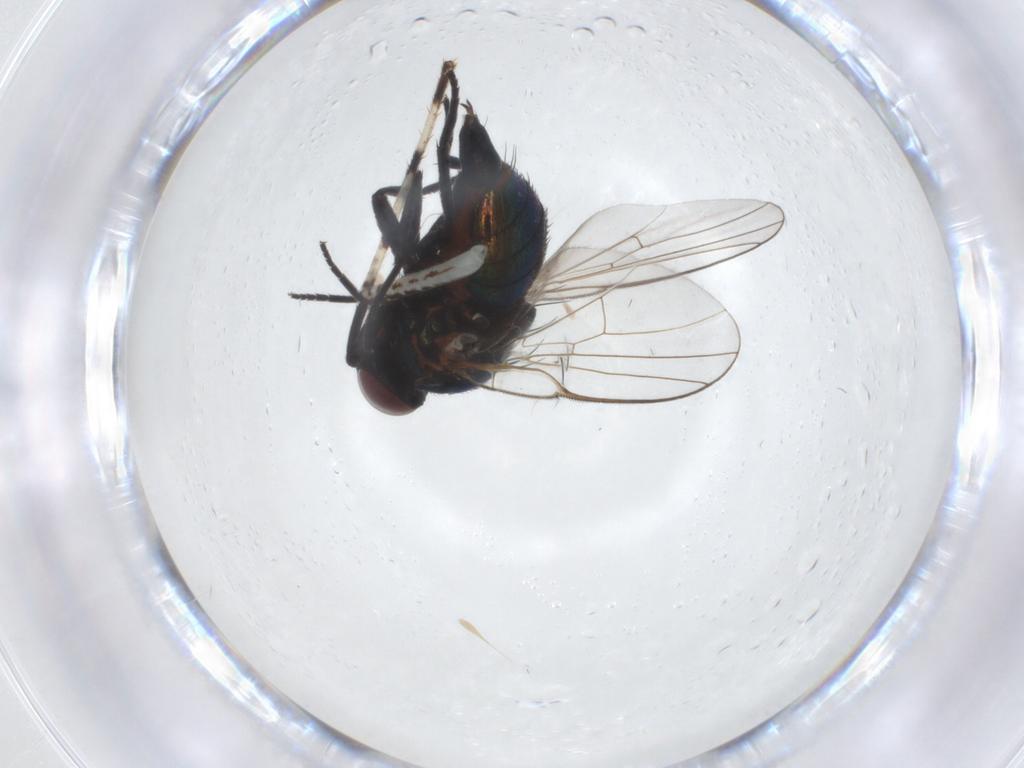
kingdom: Animalia
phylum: Arthropoda
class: Insecta
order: Diptera
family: Agromyzidae
